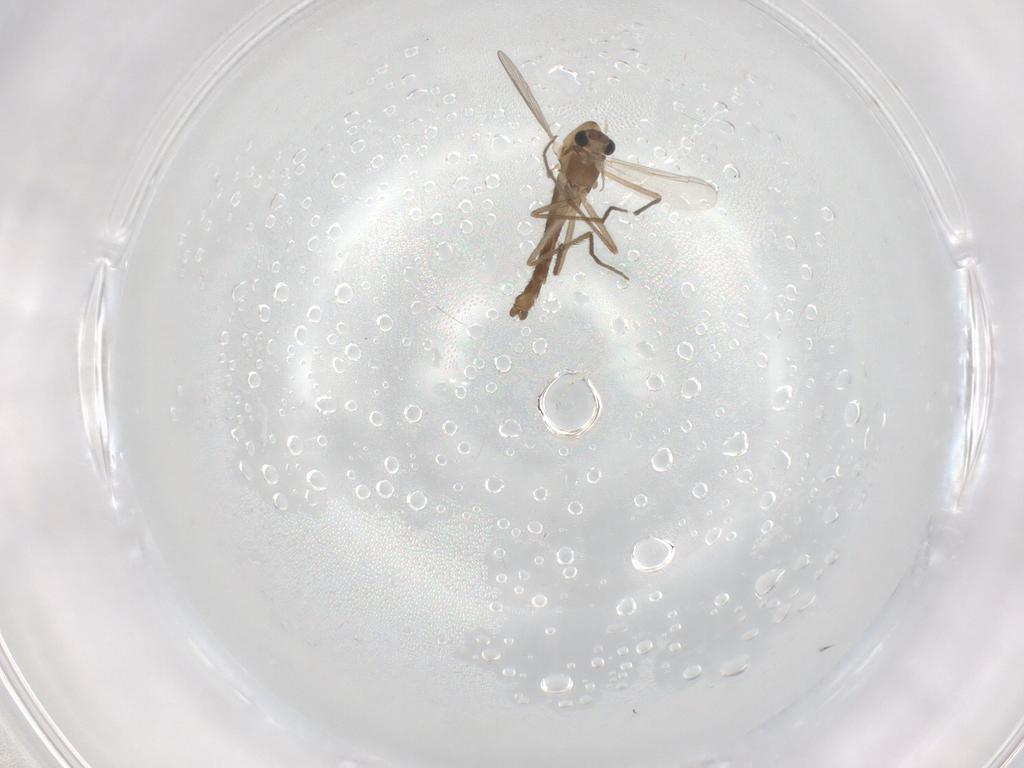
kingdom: Animalia
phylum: Arthropoda
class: Insecta
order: Diptera
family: Chironomidae
